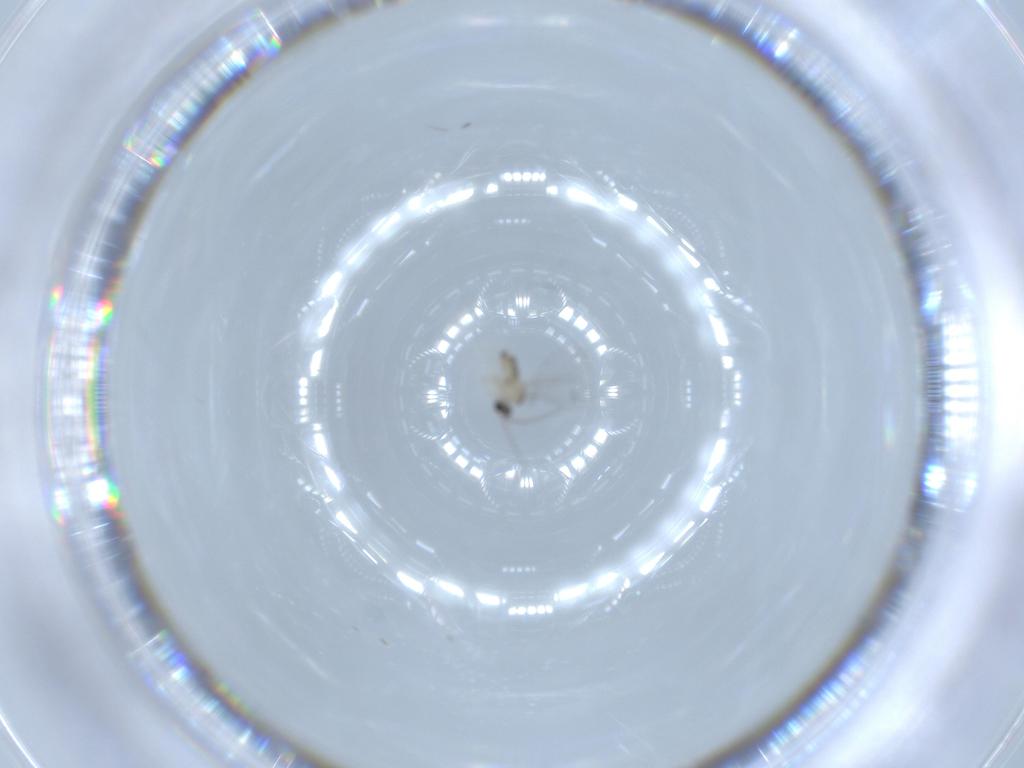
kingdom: Animalia
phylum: Arthropoda
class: Insecta
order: Diptera
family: Cecidomyiidae
